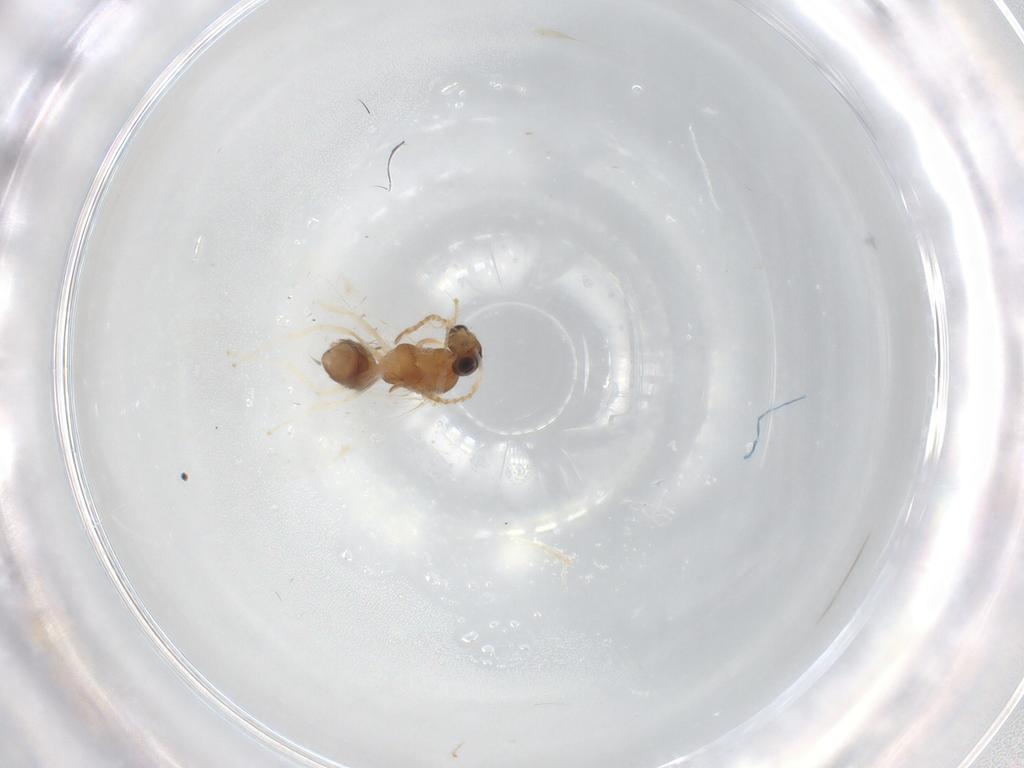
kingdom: Animalia
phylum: Arthropoda
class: Insecta
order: Hymenoptera
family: Formicidae
